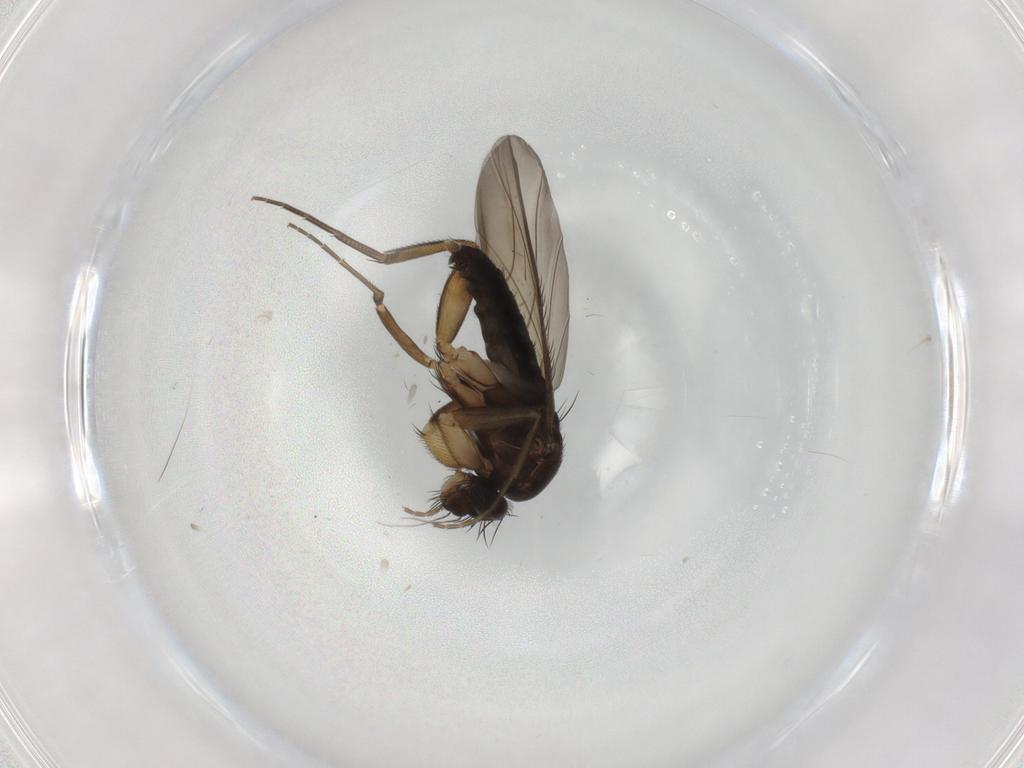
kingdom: Animalia
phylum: Arthropoda
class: Insecta
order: Diptera
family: Phoridae
